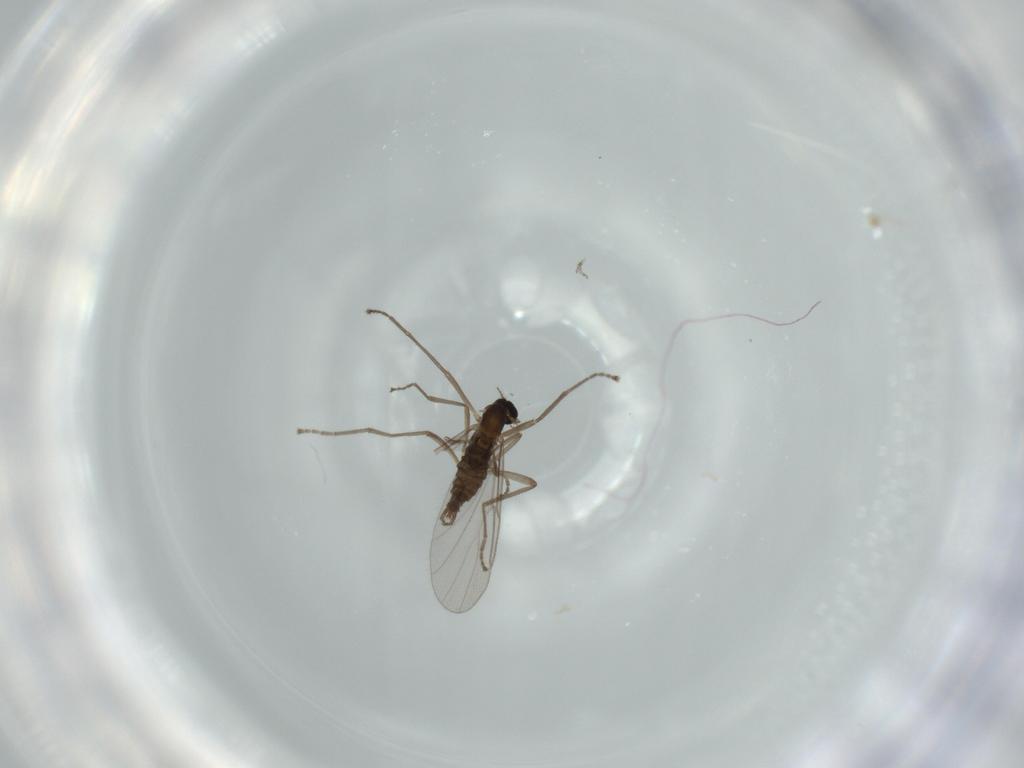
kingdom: Animalia
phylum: Arthropoda
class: Insecta
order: Diptera
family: Cecidomyiidae
